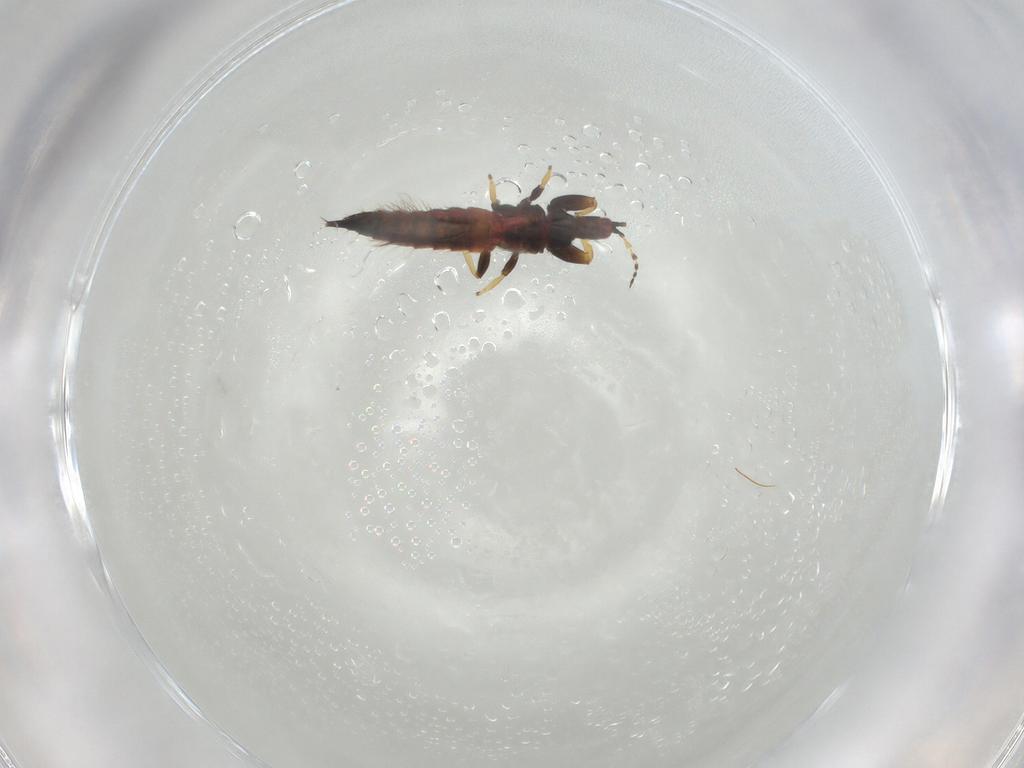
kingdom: Animalia
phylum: Arthropoda
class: Insecta
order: Thysanoptera
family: Phlaeothripidae
